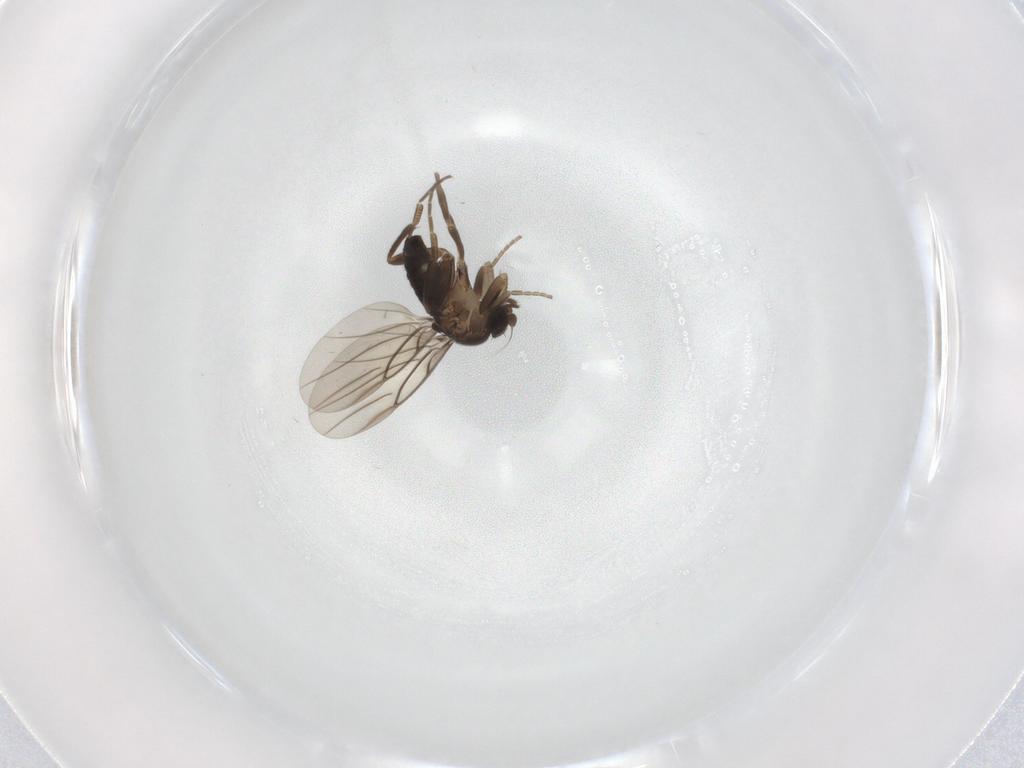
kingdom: Animalia
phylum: Arthropoda
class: Insecta
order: Diptera
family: Phoridae
